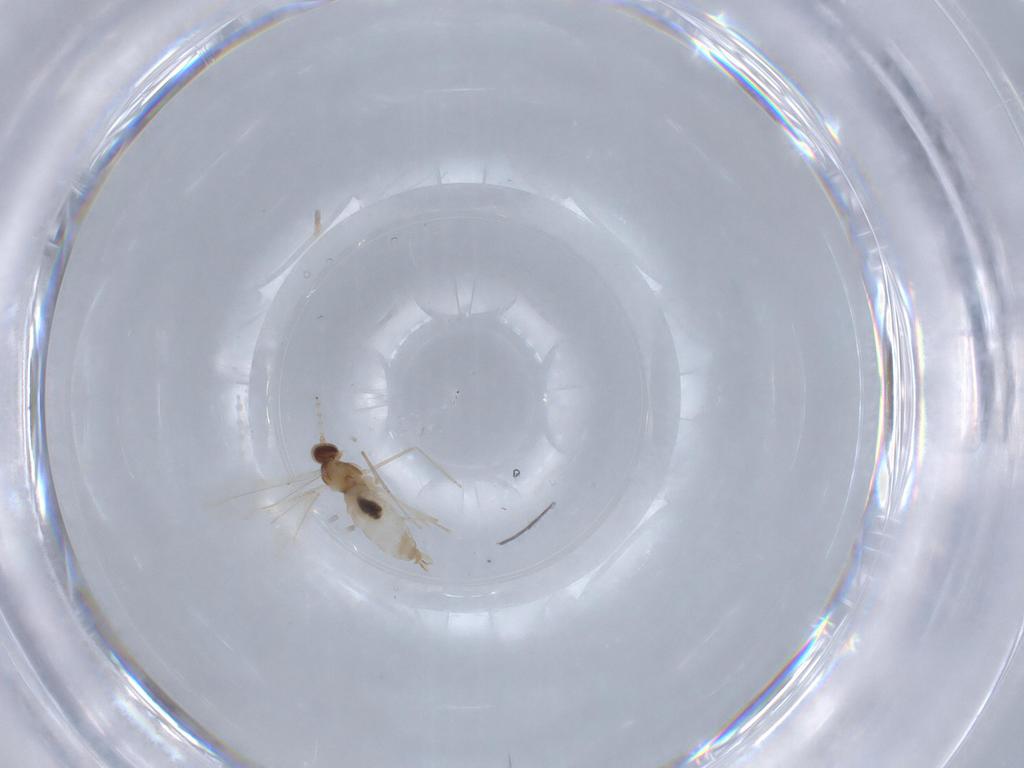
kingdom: Animalia
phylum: Arthropoda
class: Insecta
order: Diptera
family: Cecidomyiidae
